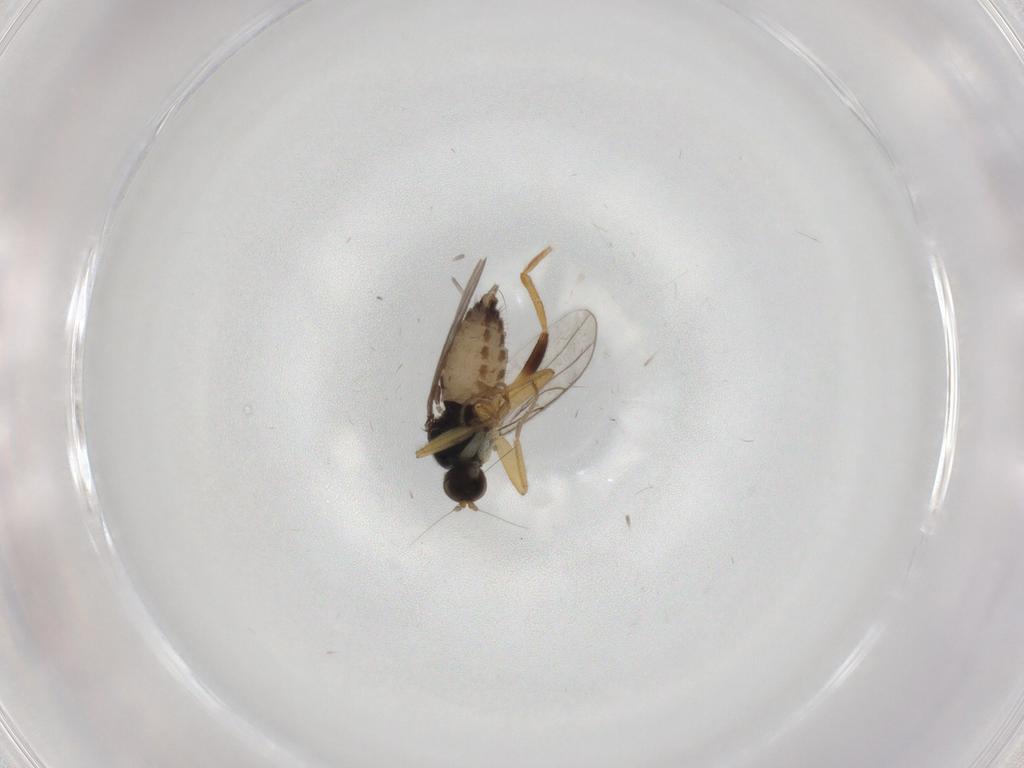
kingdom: Animalia
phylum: Arthropoda
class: Insecta
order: Diptera
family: Hybotidae
